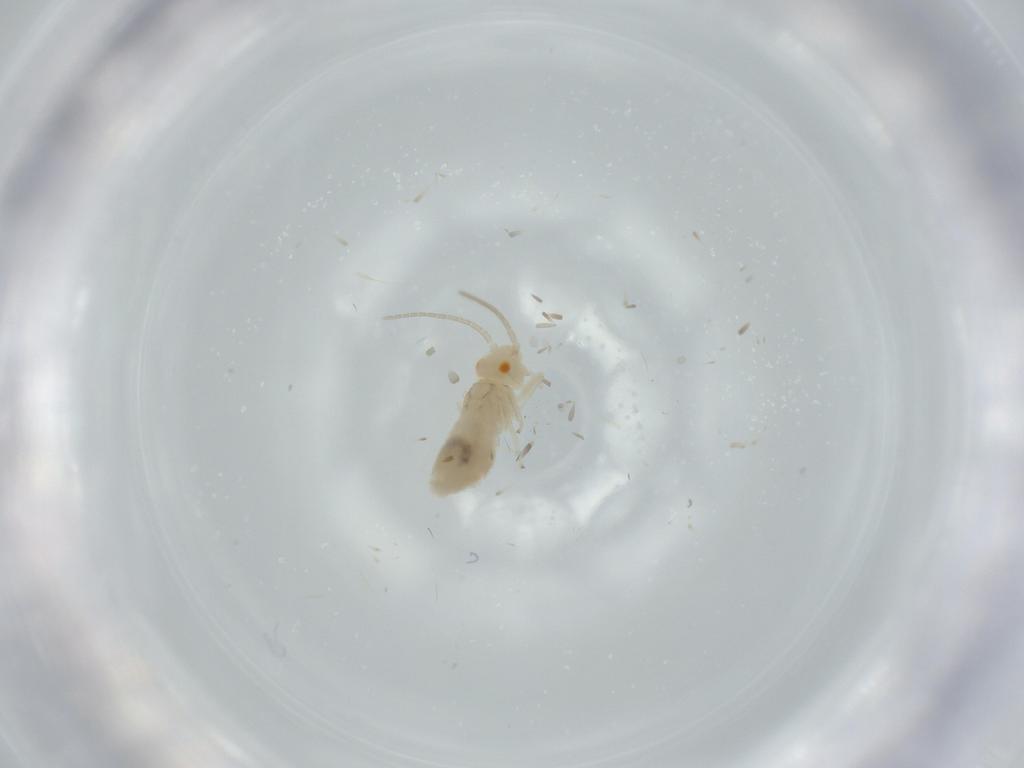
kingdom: Animalia
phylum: Arthropoda
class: Insecta
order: Psocodea
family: Caeciliusidae
